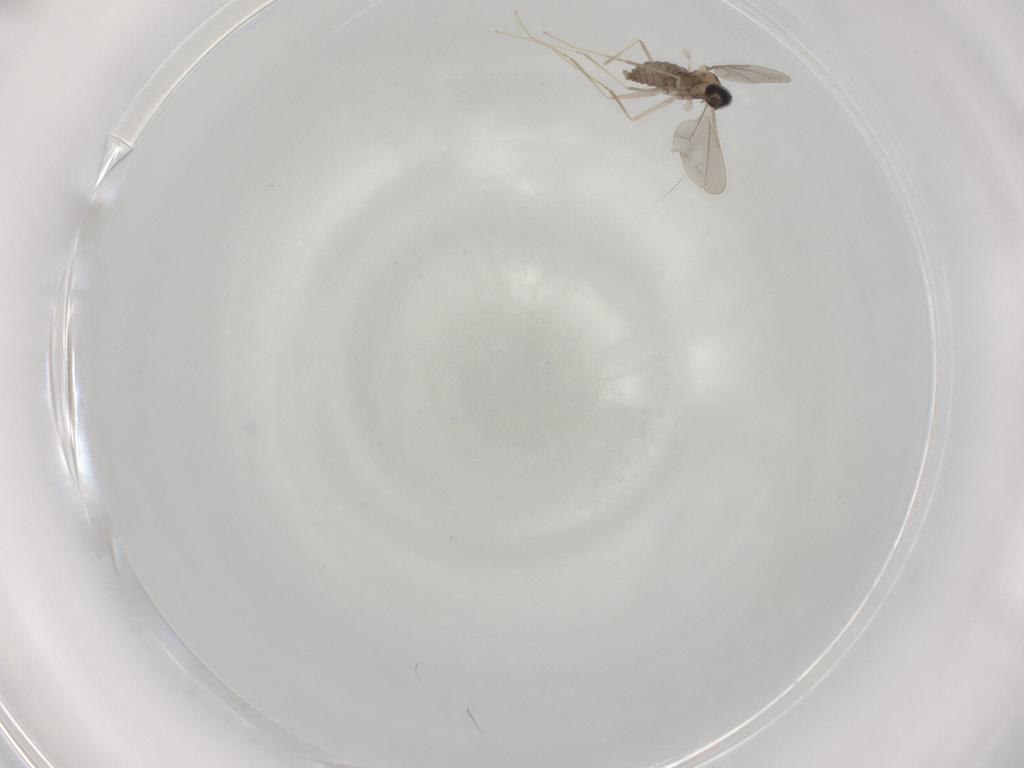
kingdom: Animalia
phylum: Arthropoda
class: Insecta
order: Diptera
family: Cecidomyiidae
